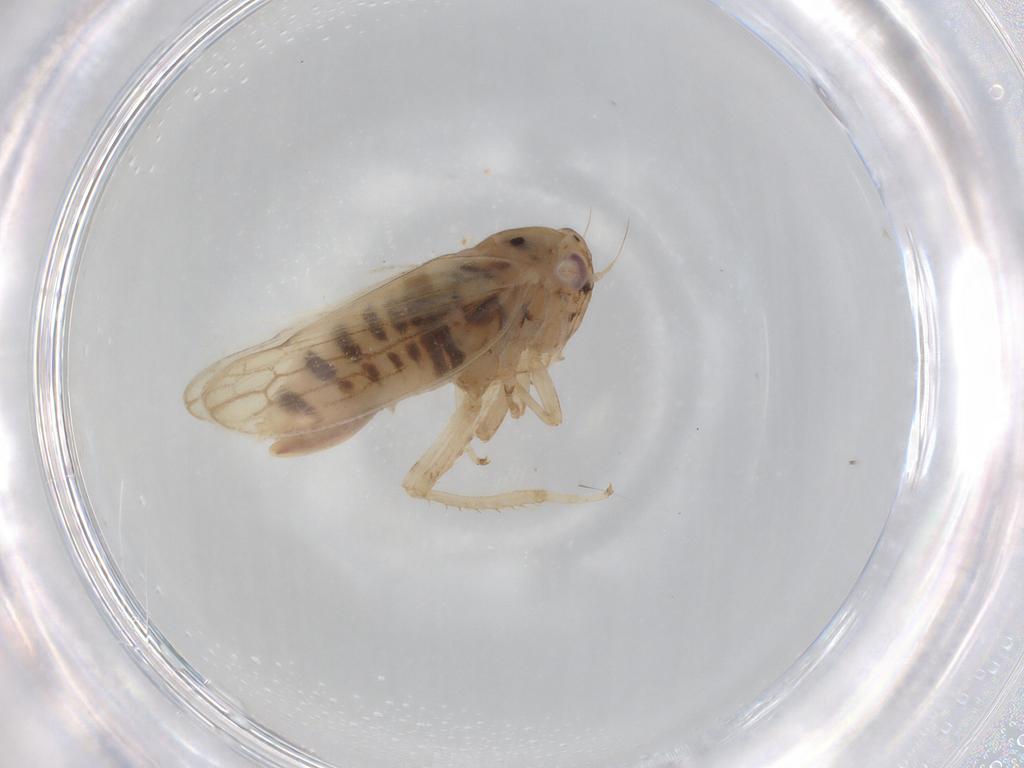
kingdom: Animalia
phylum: Arthropoda
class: Insecta
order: Hemiptera
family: Cicadellidae
